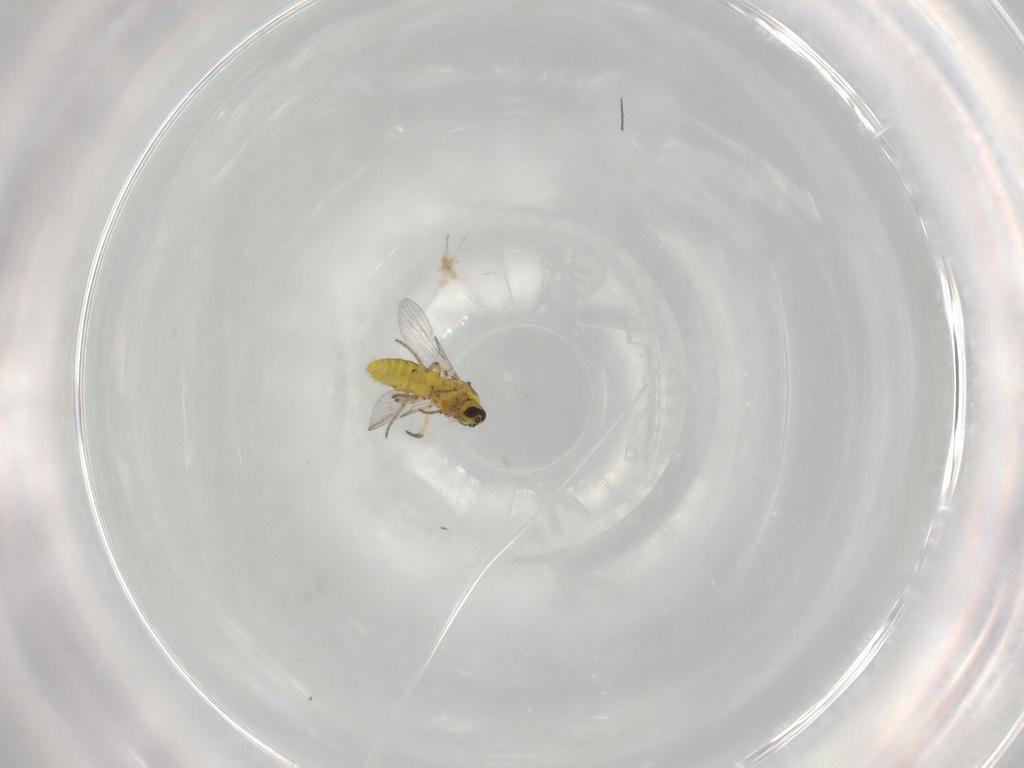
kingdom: Animalia
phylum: Arthropoda
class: Insecta
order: Diptera
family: Ceratopogonidae
